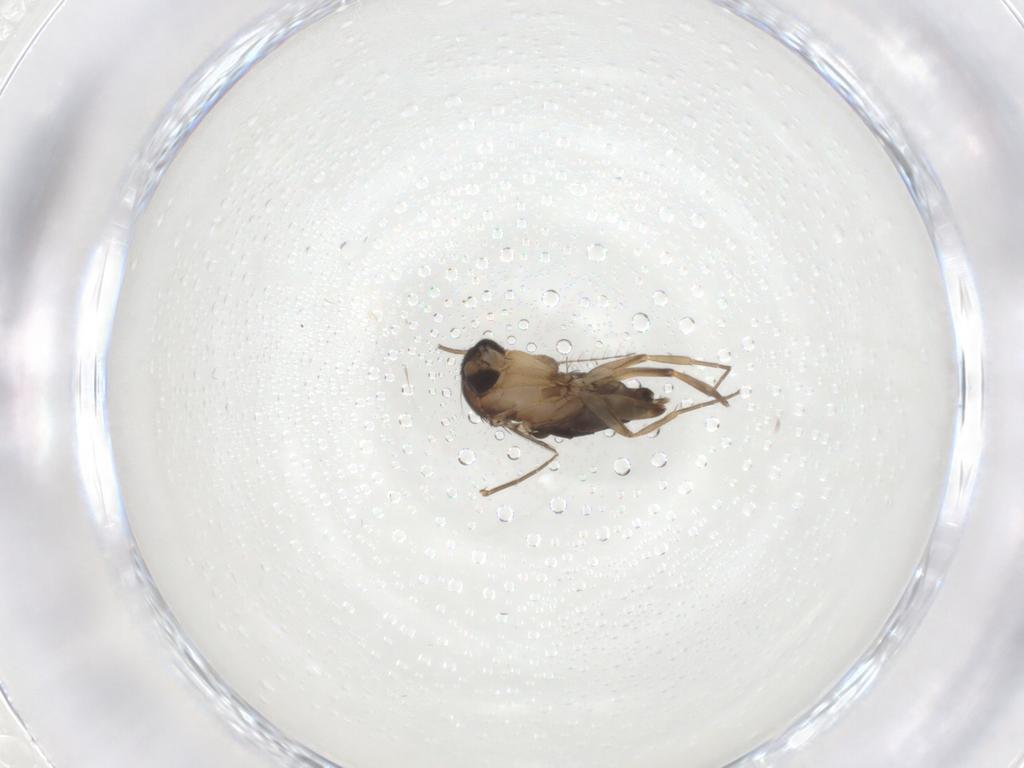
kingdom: Animalia
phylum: Arthropoda
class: Insecta
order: Diptera
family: Phoridae
